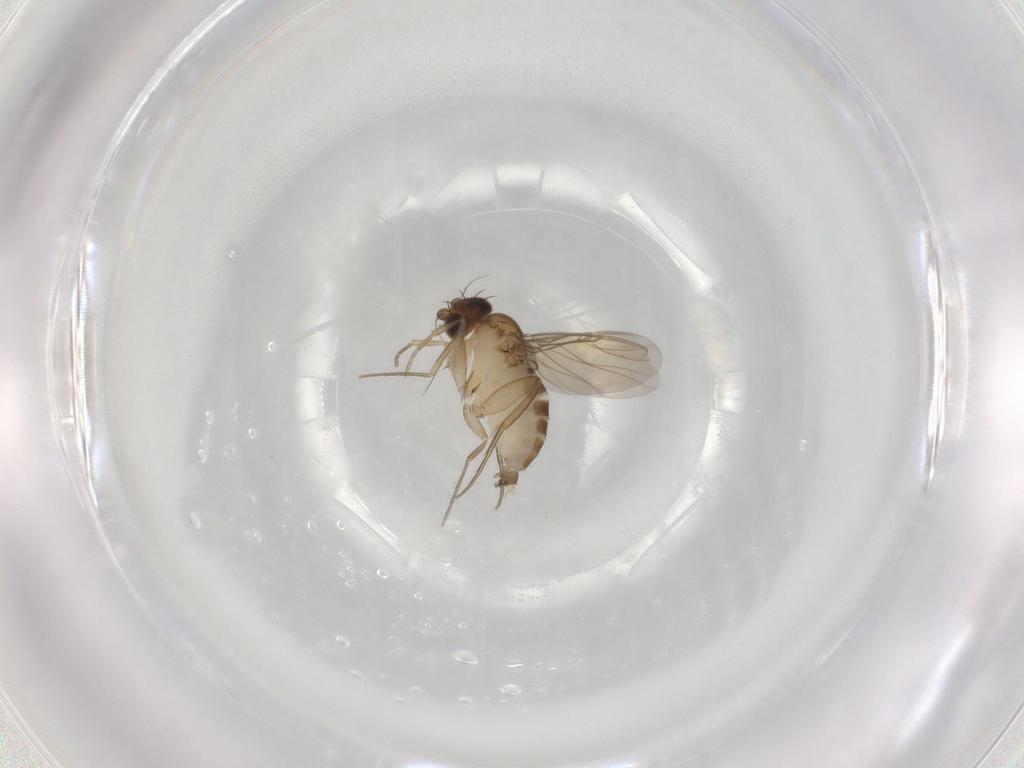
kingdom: Animalia
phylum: Arthropoda
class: Insecta
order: Diptera
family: Phoridae
